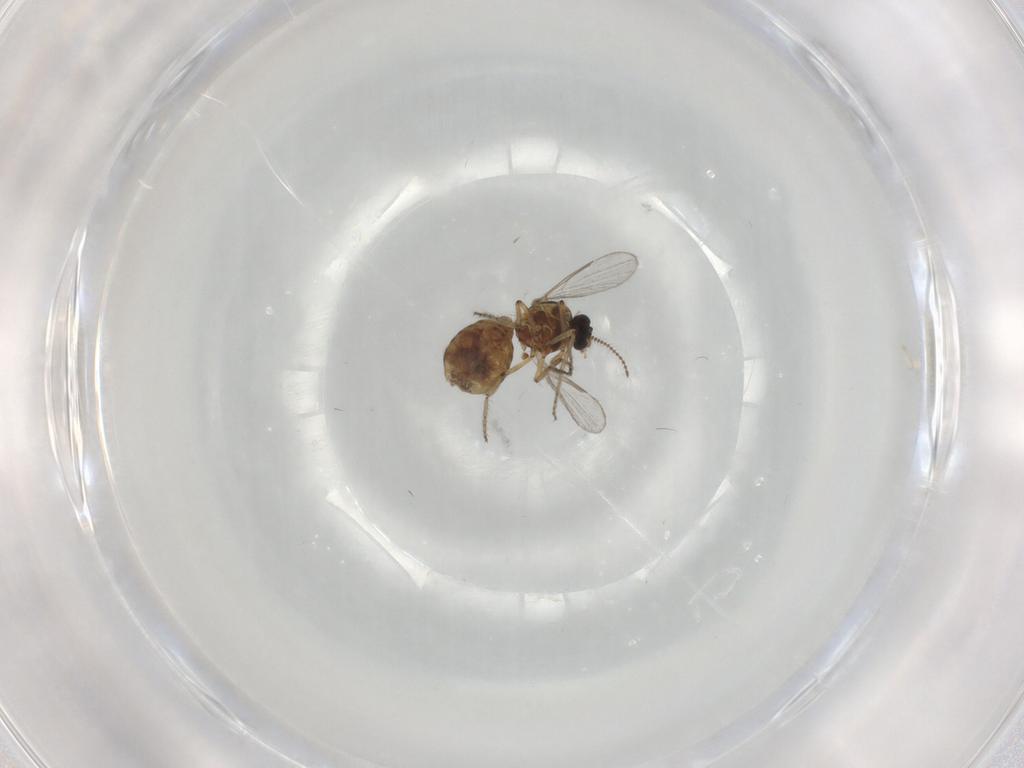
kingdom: Animalia
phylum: Arthropoda
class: Insecta
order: Diptera
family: Ceratopogonidae
